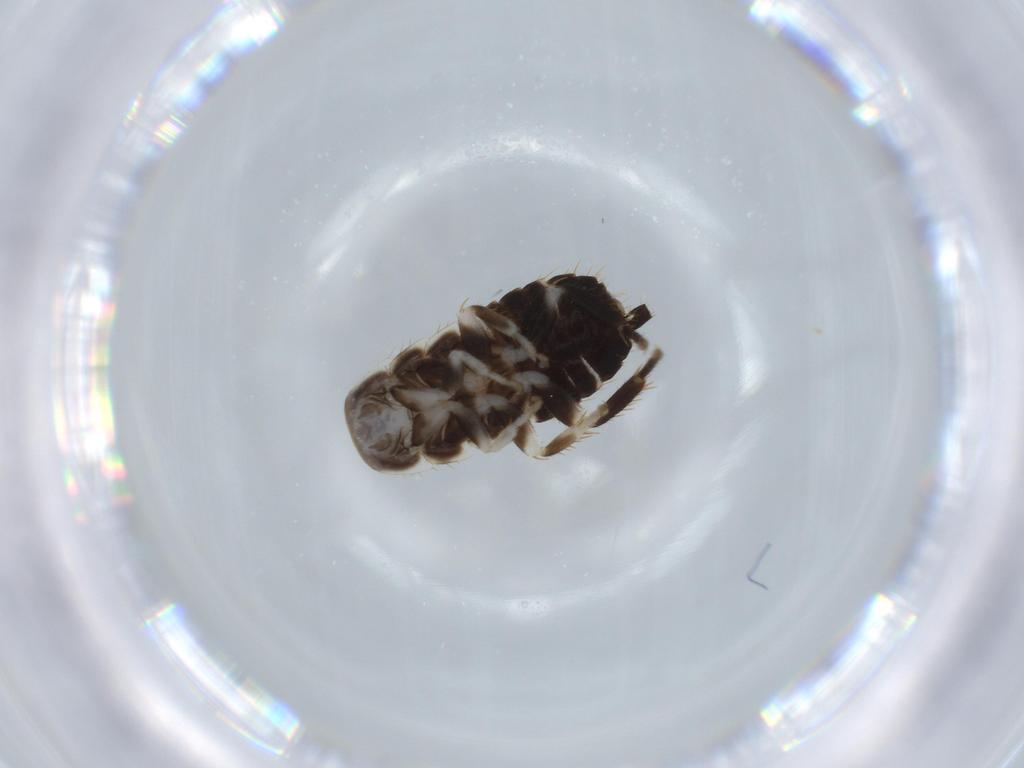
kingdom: Animalia
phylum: Arthropoda
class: Insecta
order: Blattodea
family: Ectobiidae
